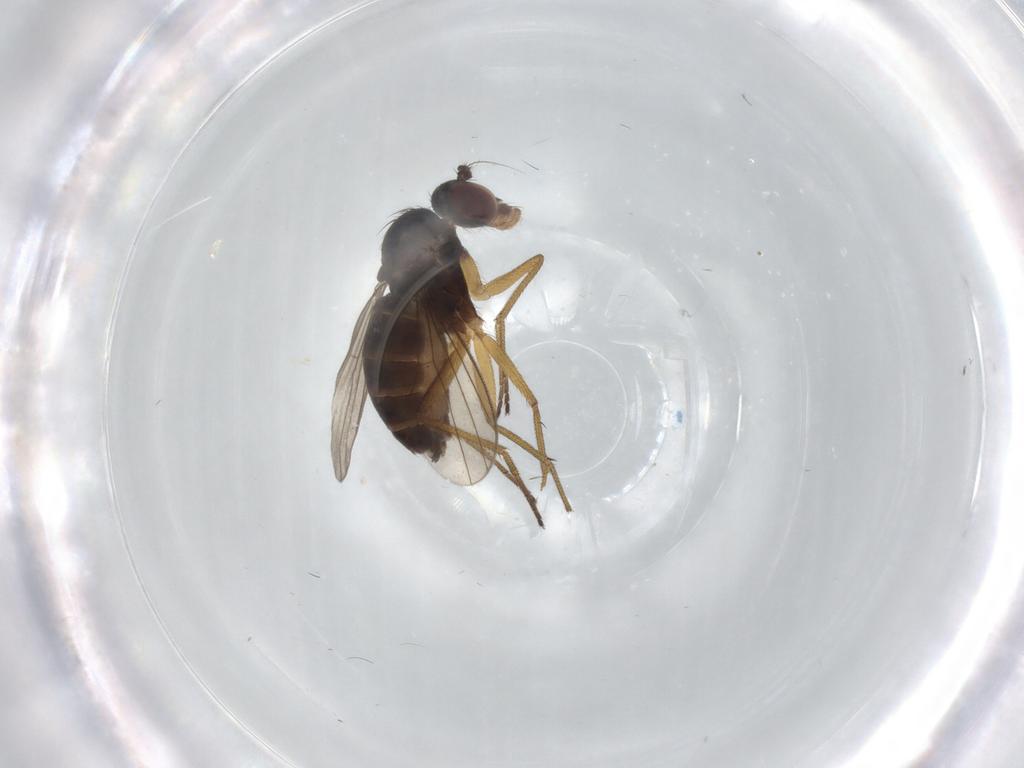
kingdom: Animalia
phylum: Arthropoda
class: Insecta
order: Diptera
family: Dolichopodidae
